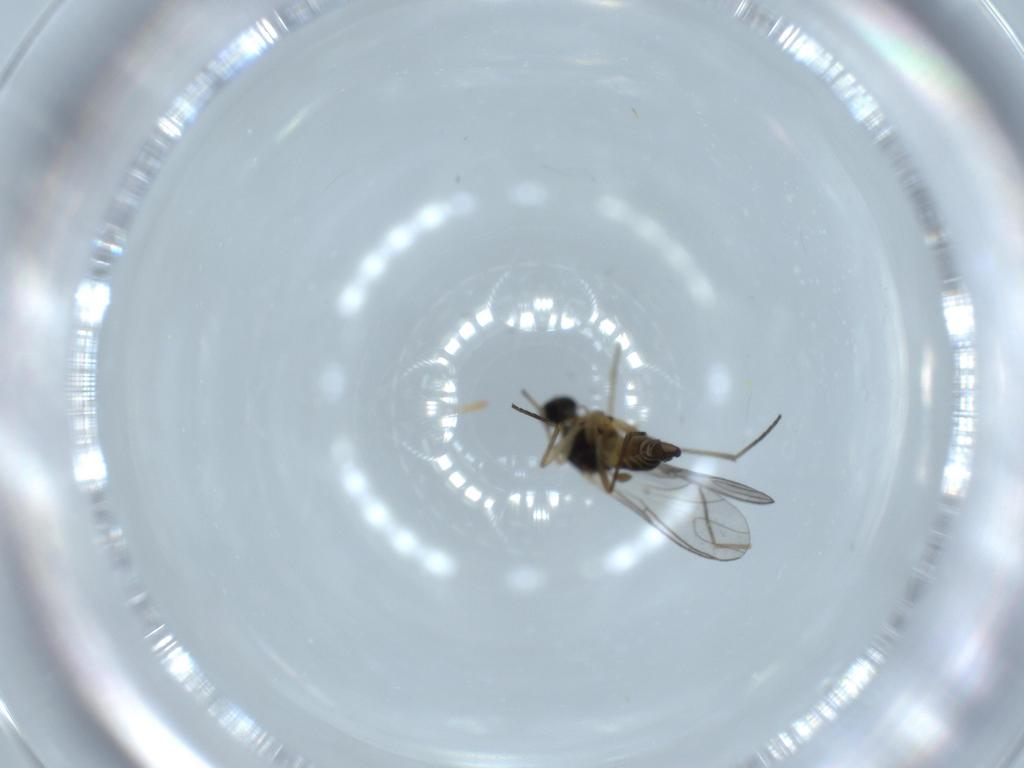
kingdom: Animalia
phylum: Arthropoda
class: Insecta
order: Diptera
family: Sciaridae
